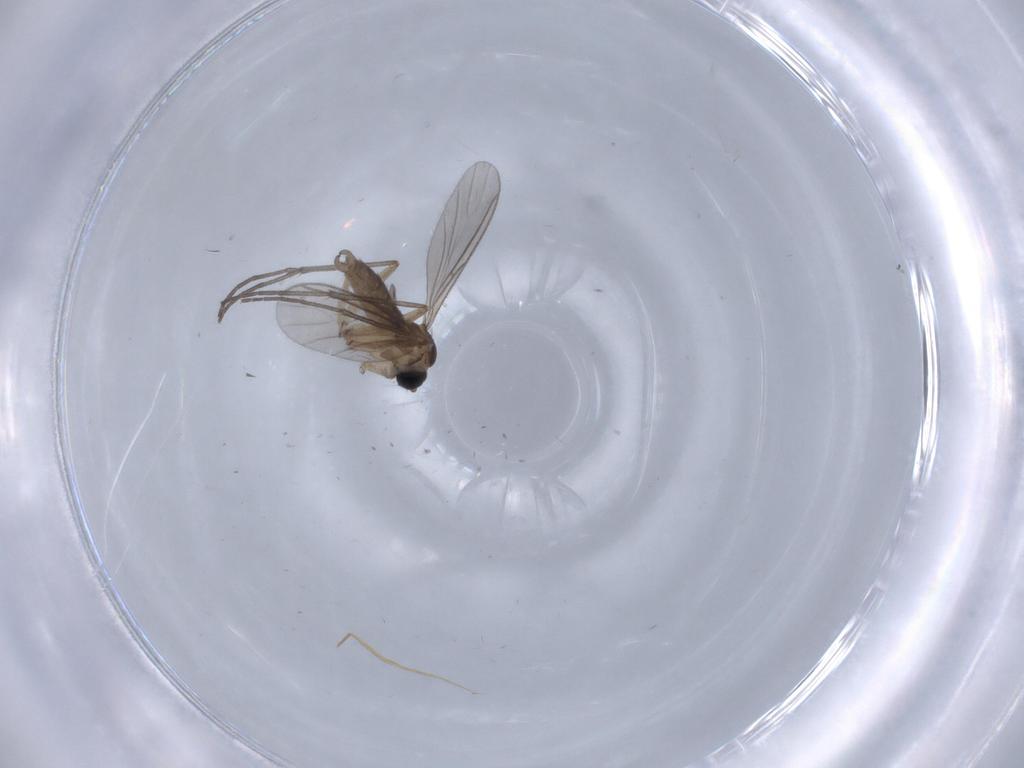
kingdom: Animalia
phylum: Arthropoda
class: Insecta
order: Diptera
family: Sciaridae
